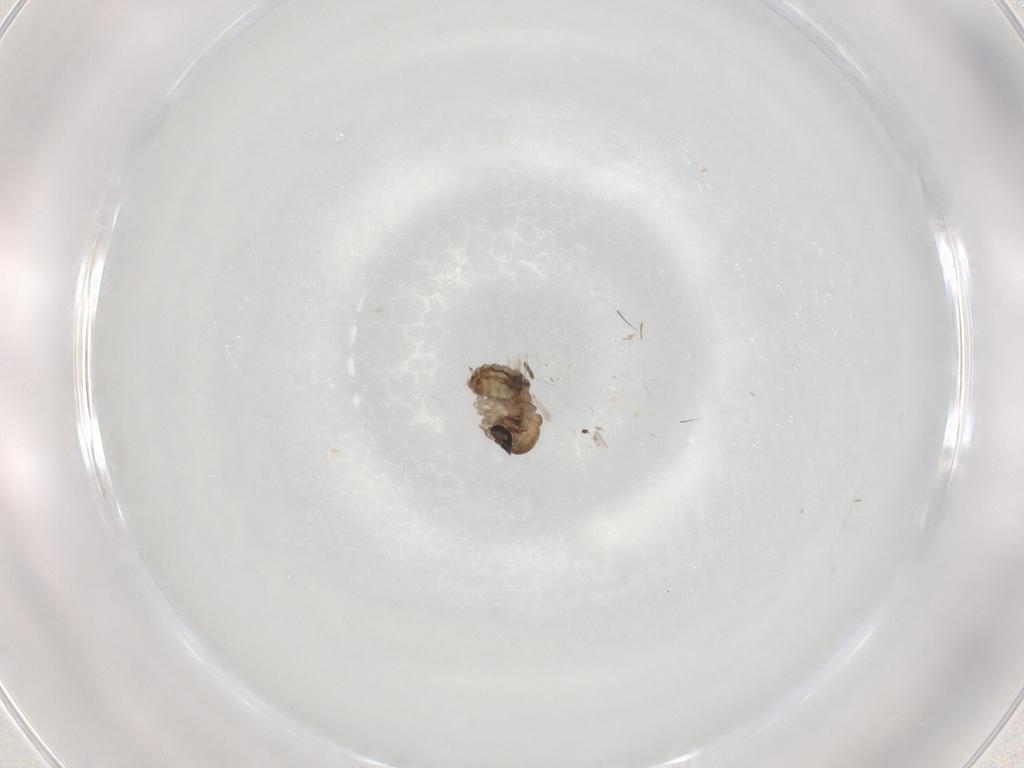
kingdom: Animalia
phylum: Arthropoda
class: Insecta
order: Diptera
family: Psychodidae
